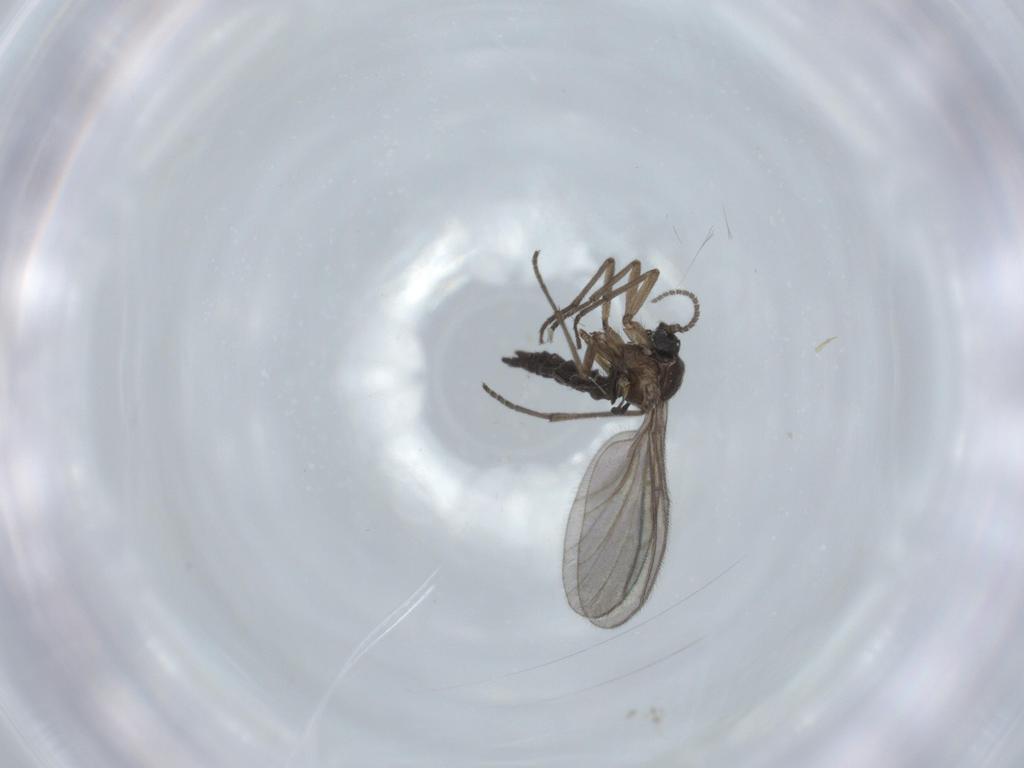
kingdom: Animalia
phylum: Arthropoda
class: Insecta
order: Diptera
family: Sciaridae
